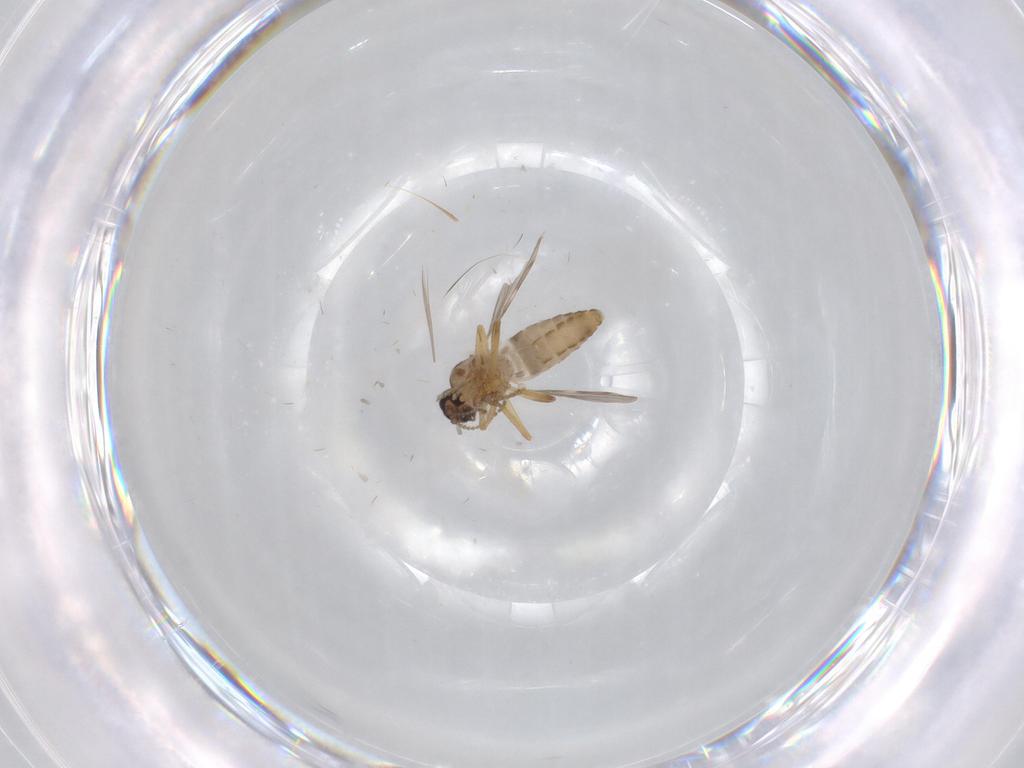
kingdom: Animalia
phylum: Arthropoda
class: Insecta
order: Diptera
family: Ceratopogonidae
